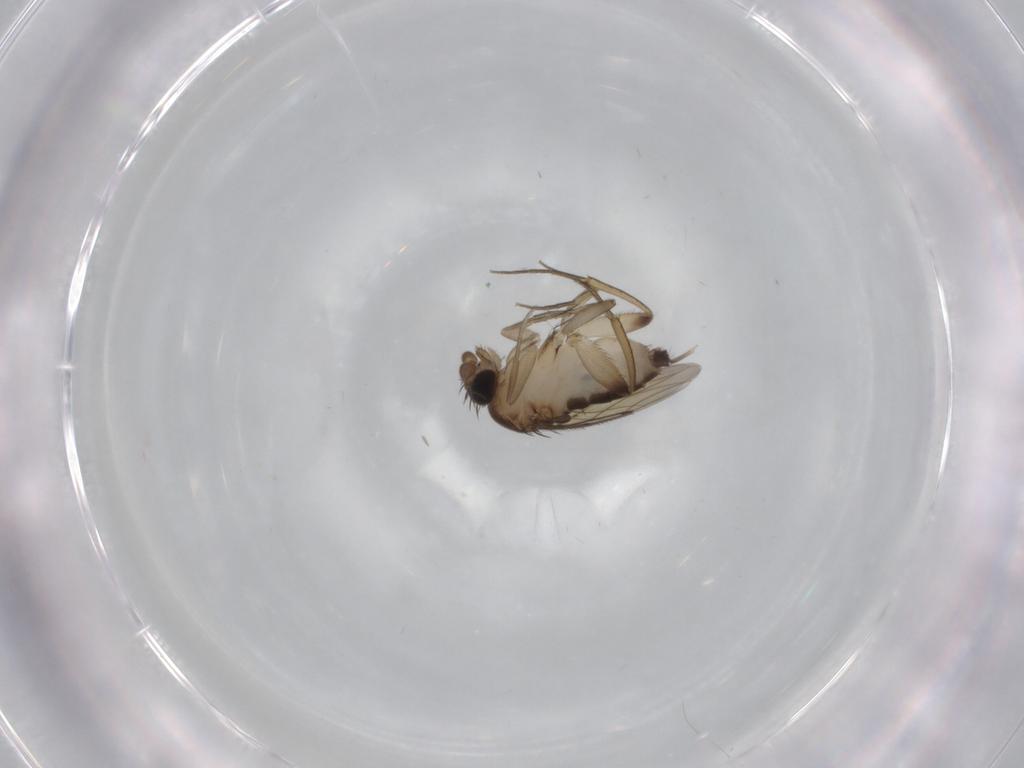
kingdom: Animalia
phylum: Arthropoda
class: Insecta
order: Diptera
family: Phoridae
